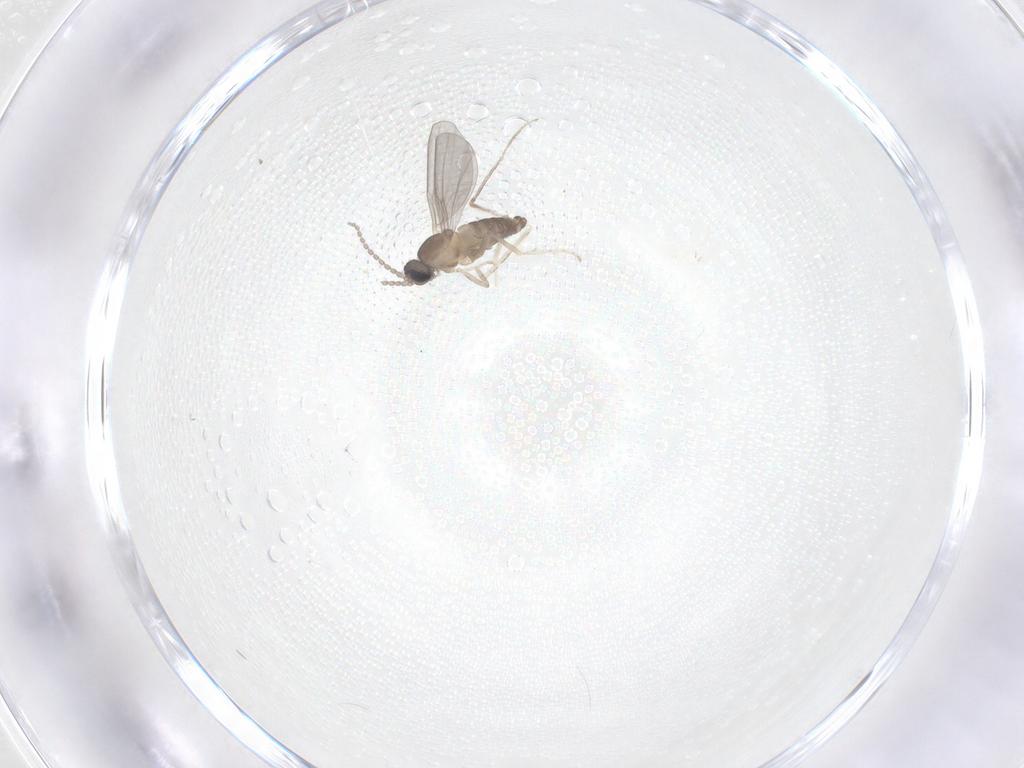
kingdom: Animalia
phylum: Arthropoda
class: Insecta
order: Diptera
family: Cecidomyiidae
